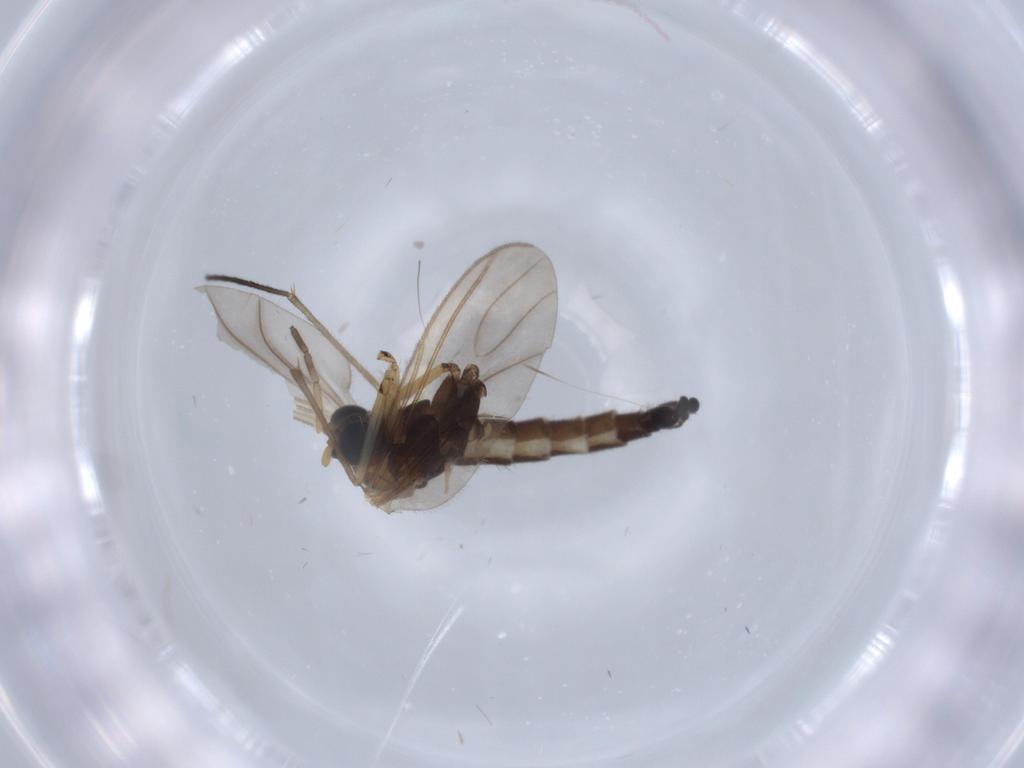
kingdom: Animalia
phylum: Arthropoda
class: Insecta
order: Diptera
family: Sciaridae
